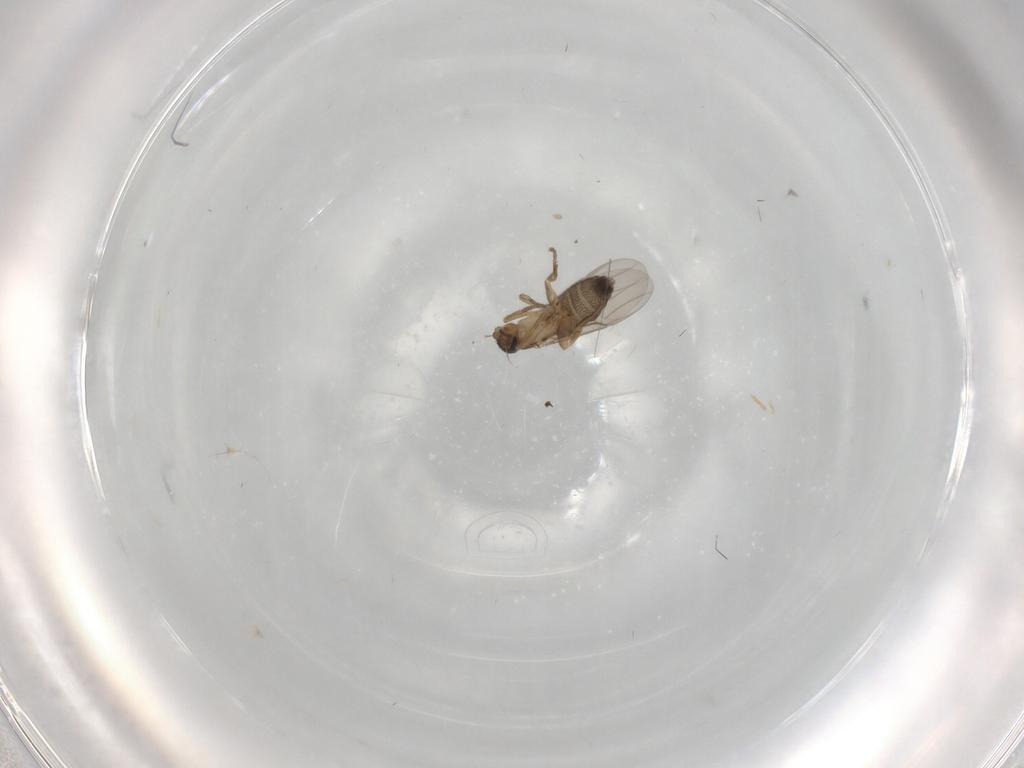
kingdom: Animalia
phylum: Arthropoda
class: Insecta
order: Diptera
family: Phoridae
